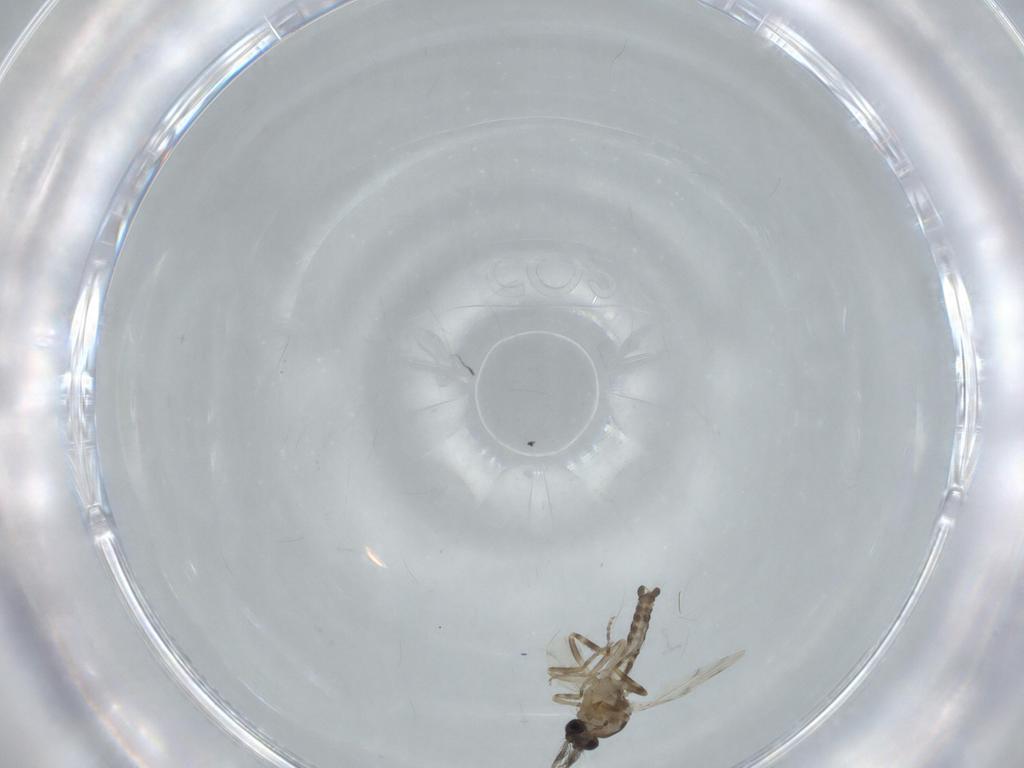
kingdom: Animalia
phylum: Arthropoda
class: Insecta
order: Diptera
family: Ceratopogonidae
